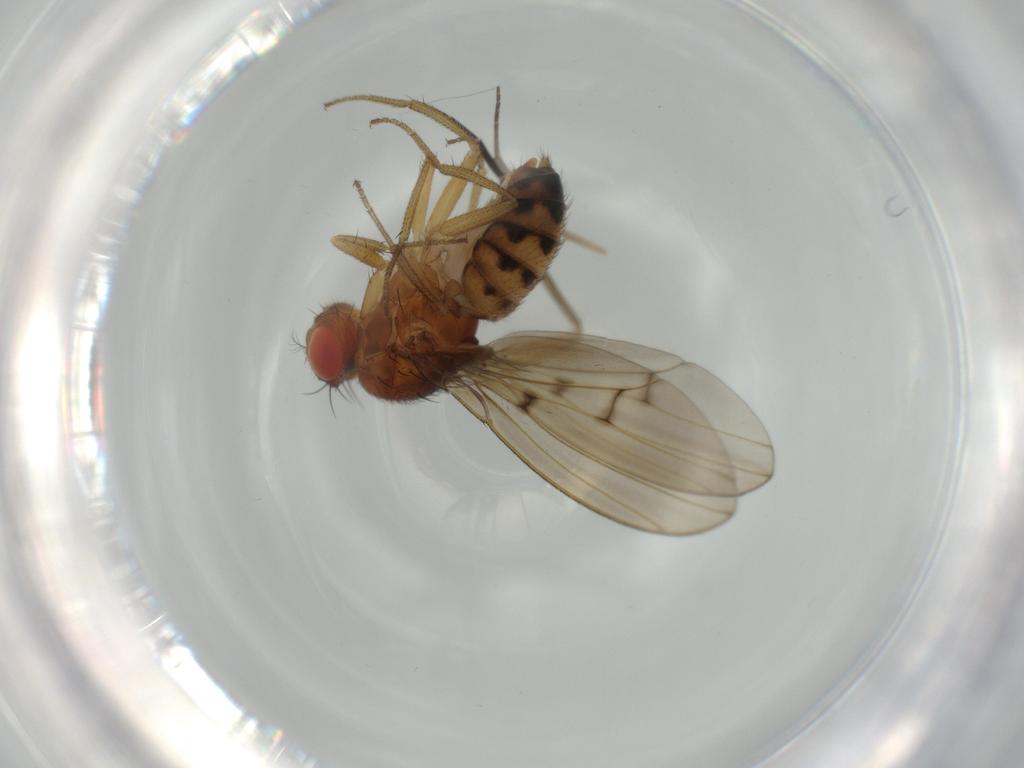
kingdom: Animalia
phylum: Arthropoda
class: Insecta
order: Diptera
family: Drosophilidae
